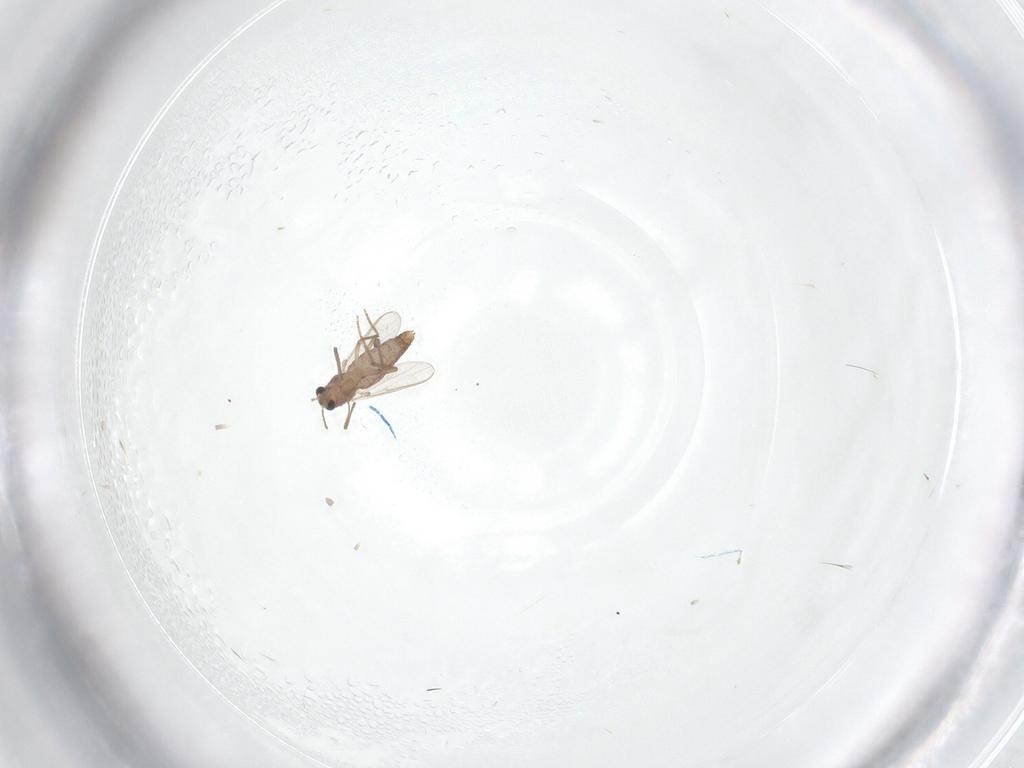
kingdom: Animalia
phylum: Arthropoda
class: Insecta
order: Diptera
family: Chironomidae
